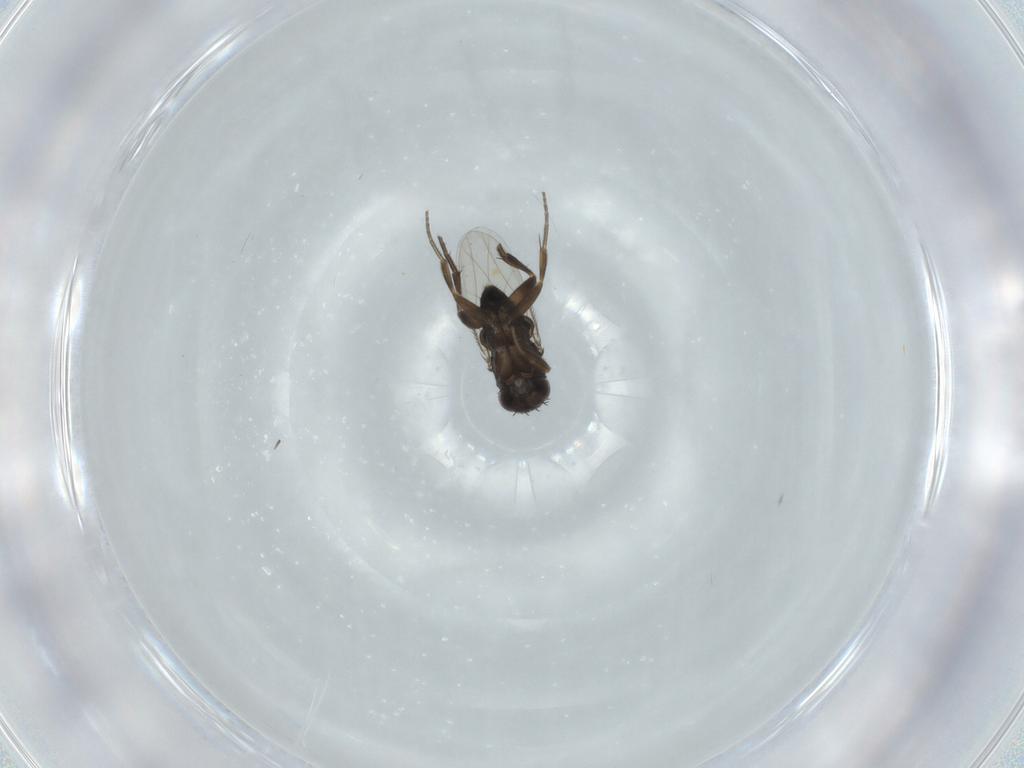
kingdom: Animalia
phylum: Arthropoda
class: Insecta
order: Diptera
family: Phoridae
